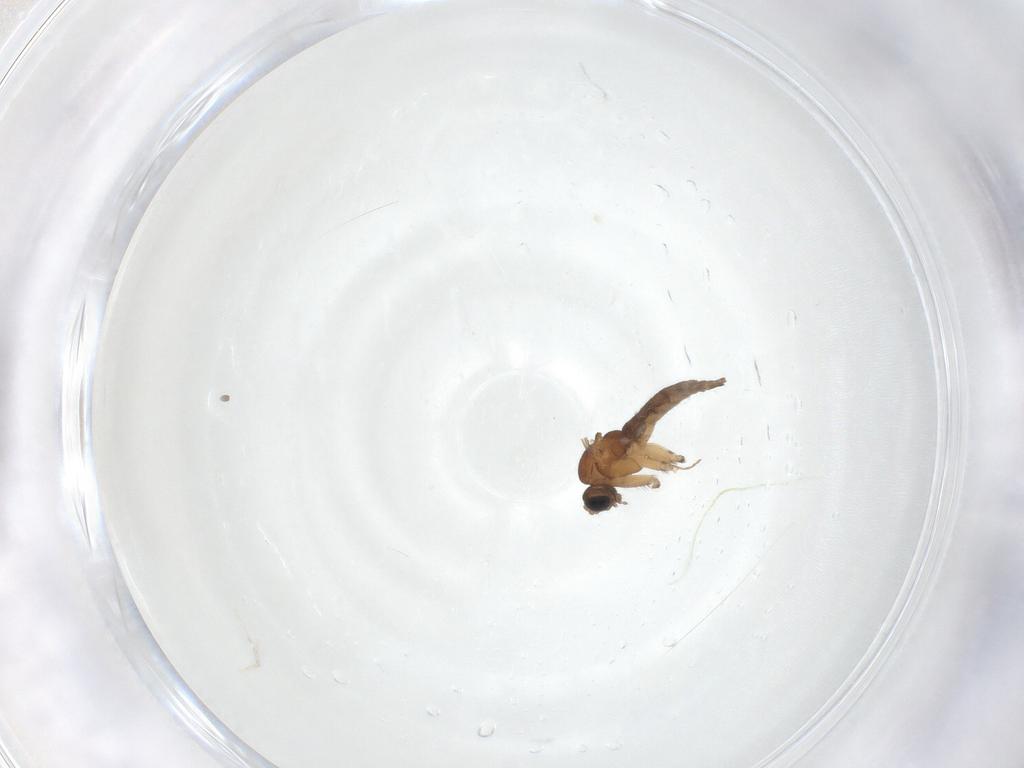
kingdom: Animalia
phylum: Arthropoda
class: Insecta
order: Diptera
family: Sciaridae
